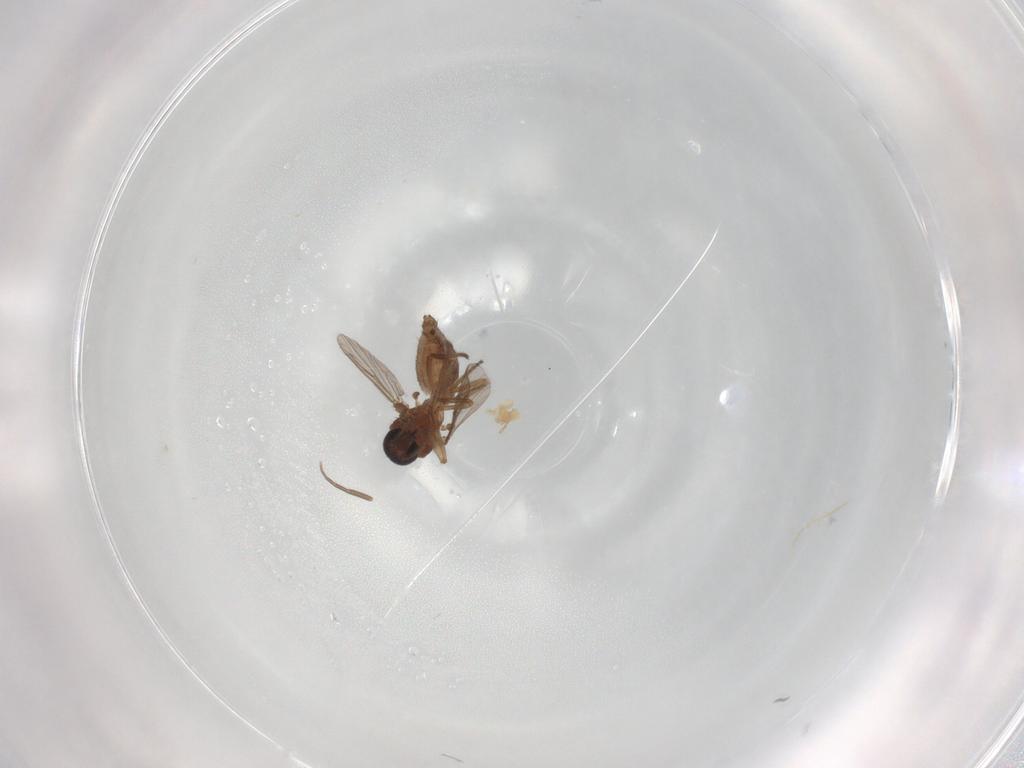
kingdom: Animalia
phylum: Arthropoda
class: Insecta
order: Diptera
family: Ceratopogonidae
